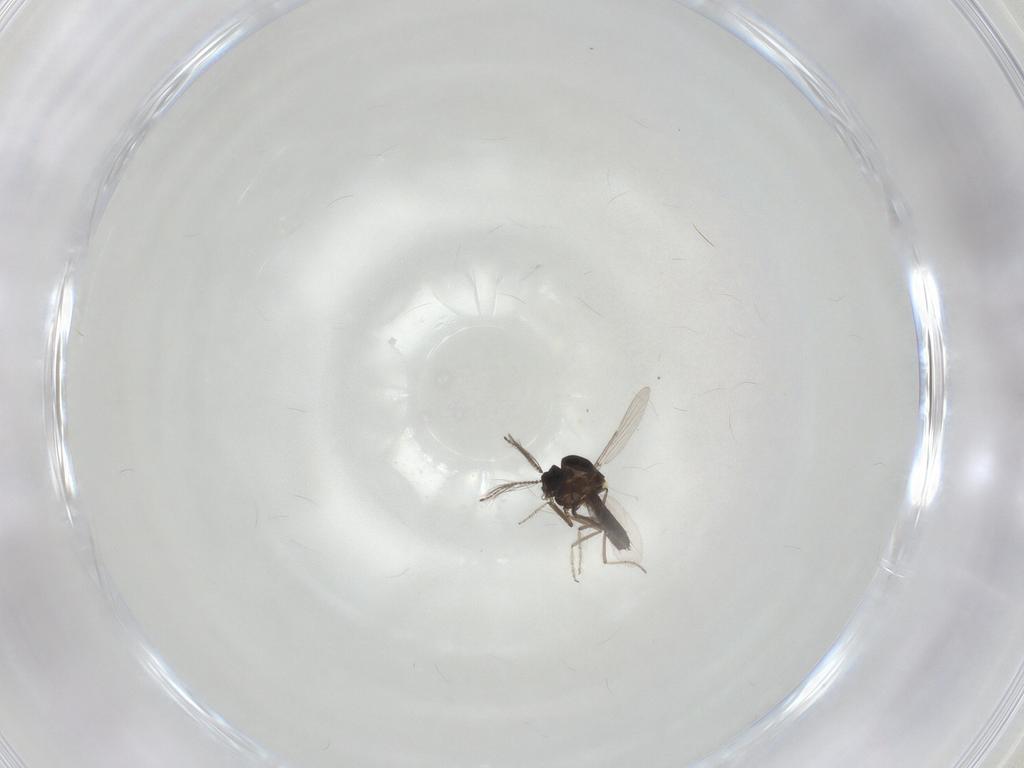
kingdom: Animalia
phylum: Arthropoda
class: Insecta
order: Diptera
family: Ceratopogonidae
